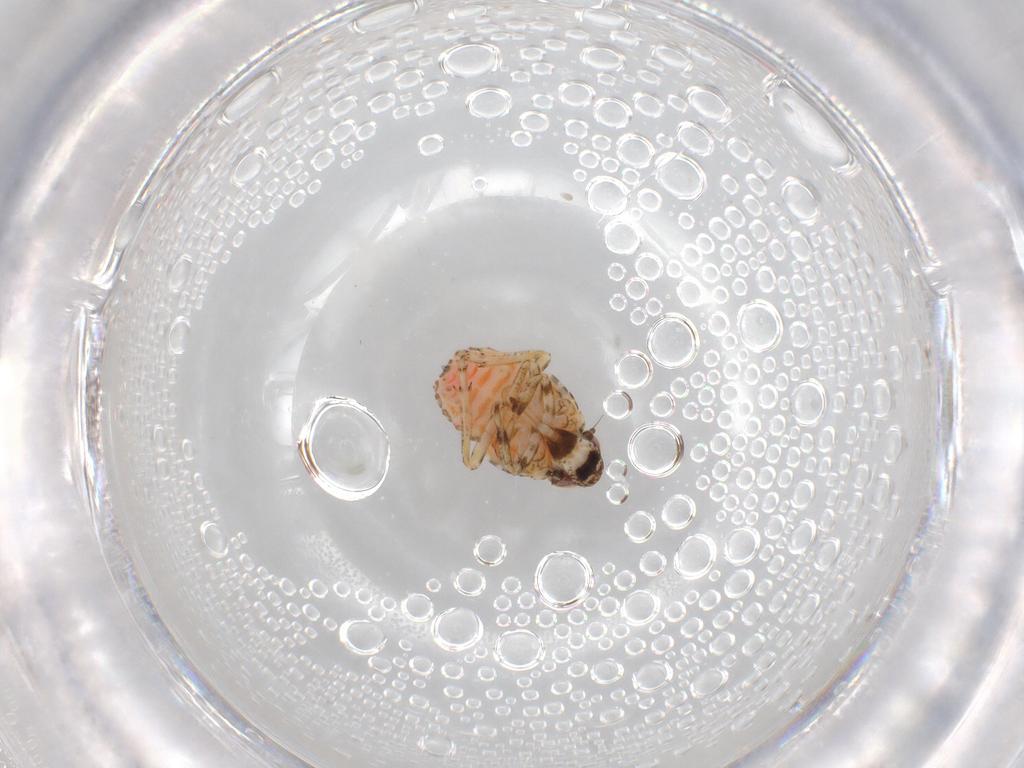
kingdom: Animalia
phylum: Arthropoda
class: Insecta
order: Hemiptera
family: Issidae
